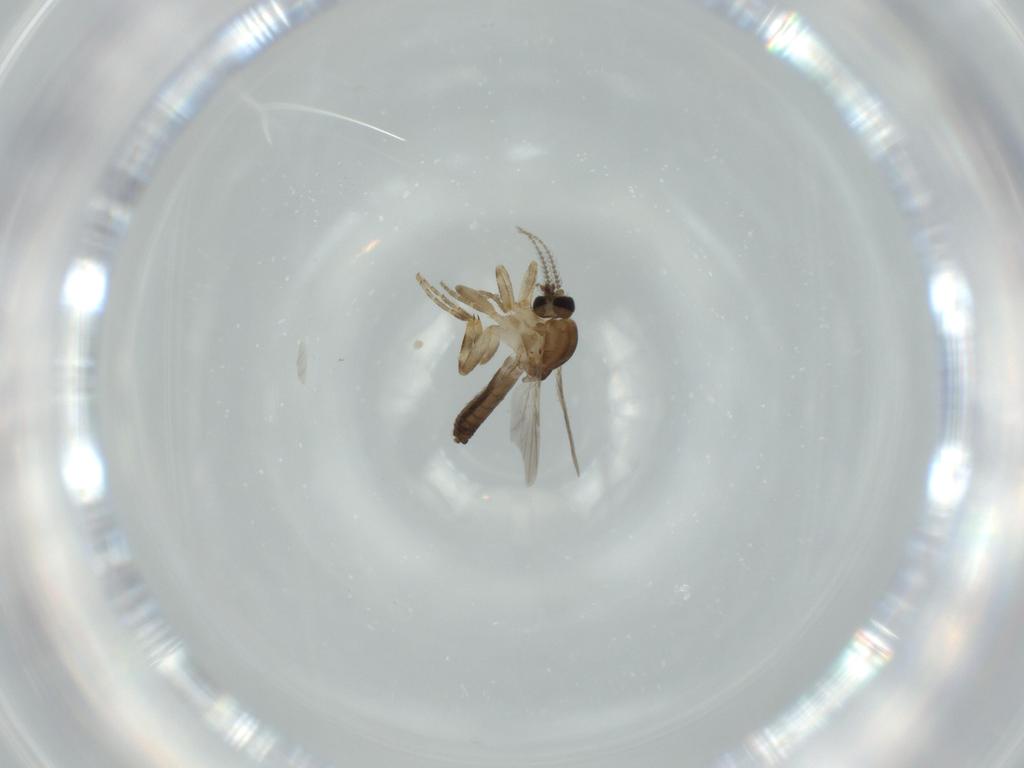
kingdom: Animalia
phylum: Arthropoda
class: Insecta
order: Diptera
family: Ceratopogonidae
